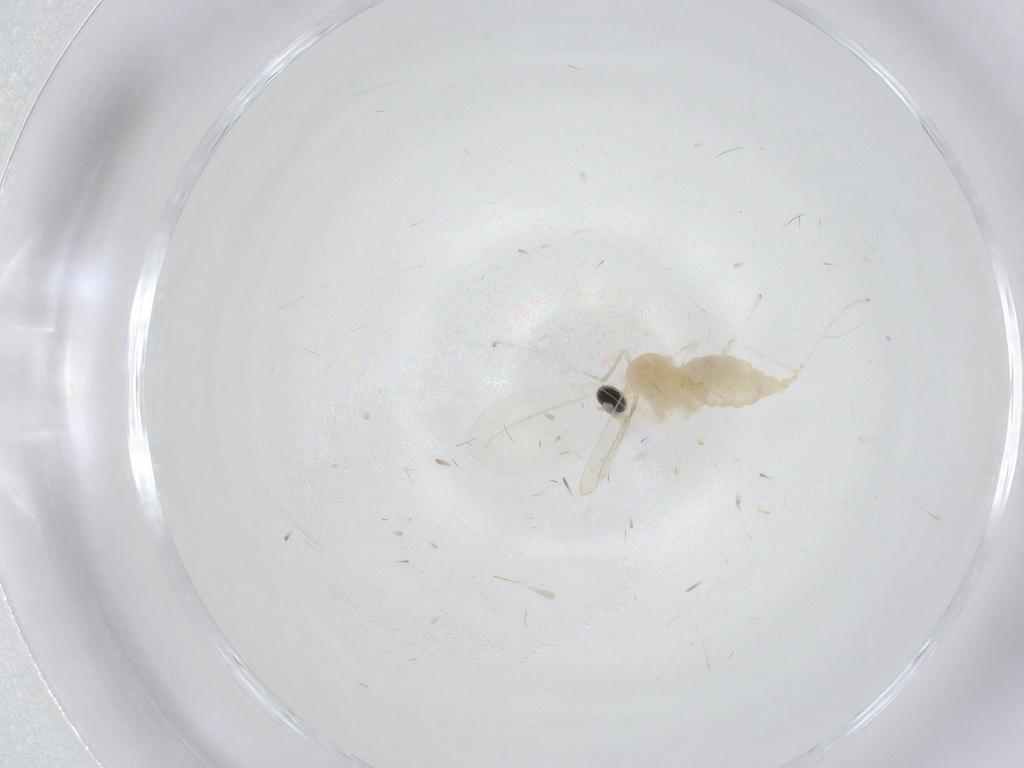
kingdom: Animalia
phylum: Arthropoda
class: Insecta
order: Diptera
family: Cecidomyiidae
